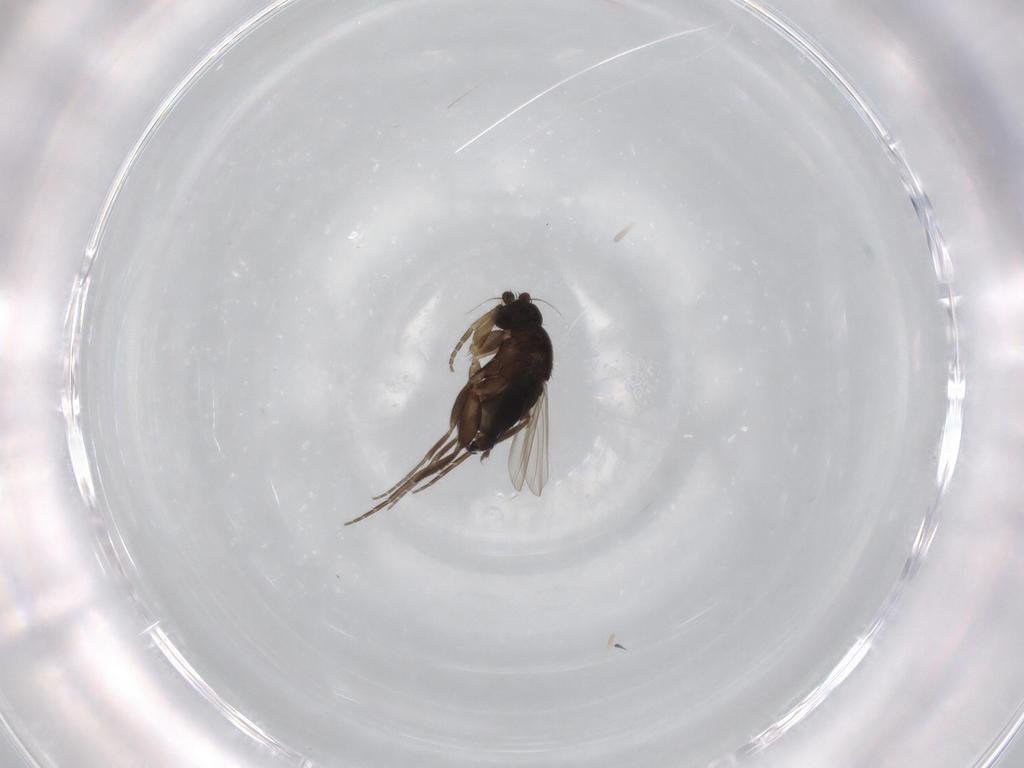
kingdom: Animalia
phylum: Arthropoda
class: Insecta
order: Diptera
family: Phoridae
